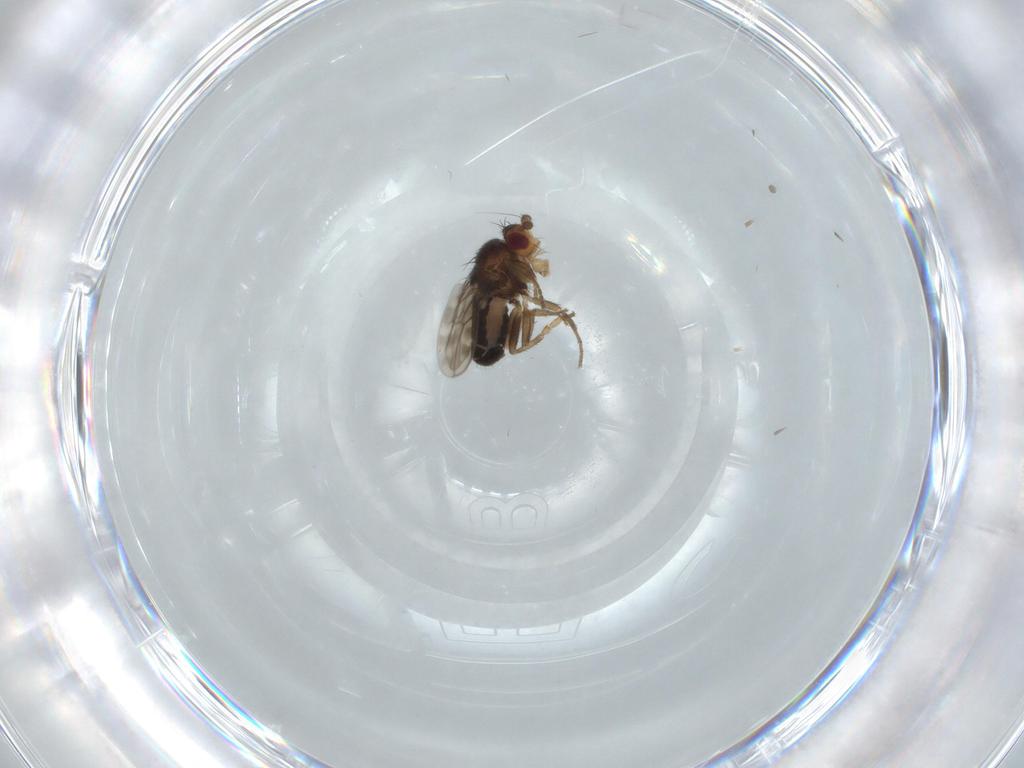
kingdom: Animalia
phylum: Arthropoda
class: Insecta
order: Diptera
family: Sphaeroceridae
